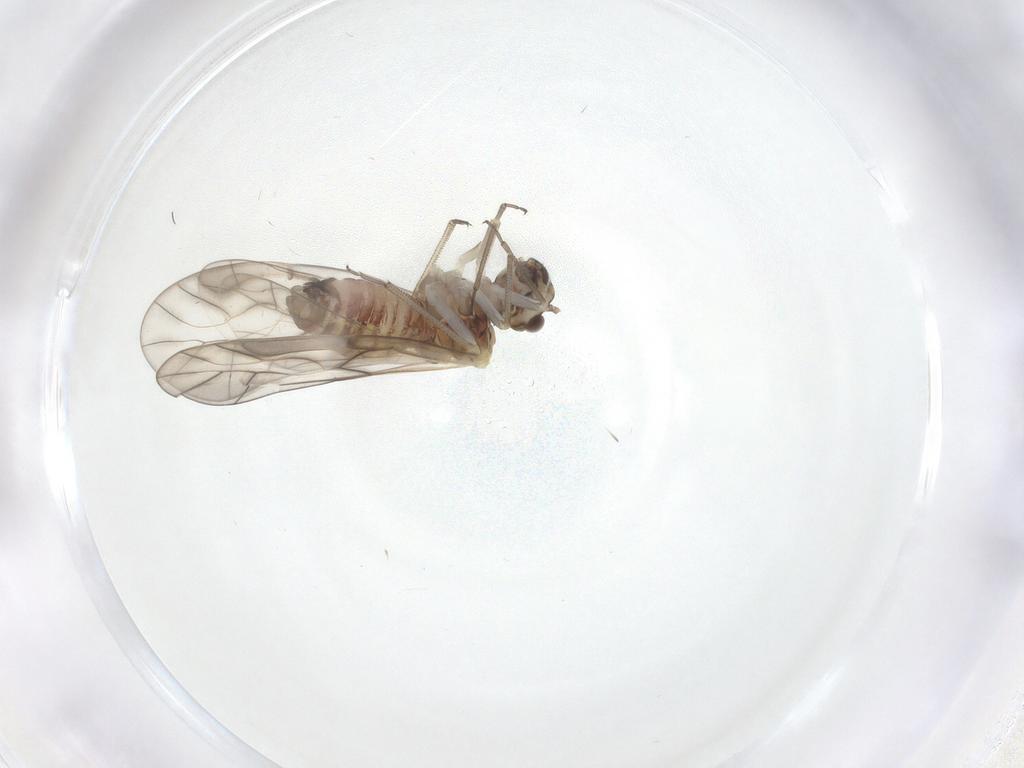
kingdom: Animalia
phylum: Arthropoda
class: Insecta
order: Psocodea
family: Peripsocidae
